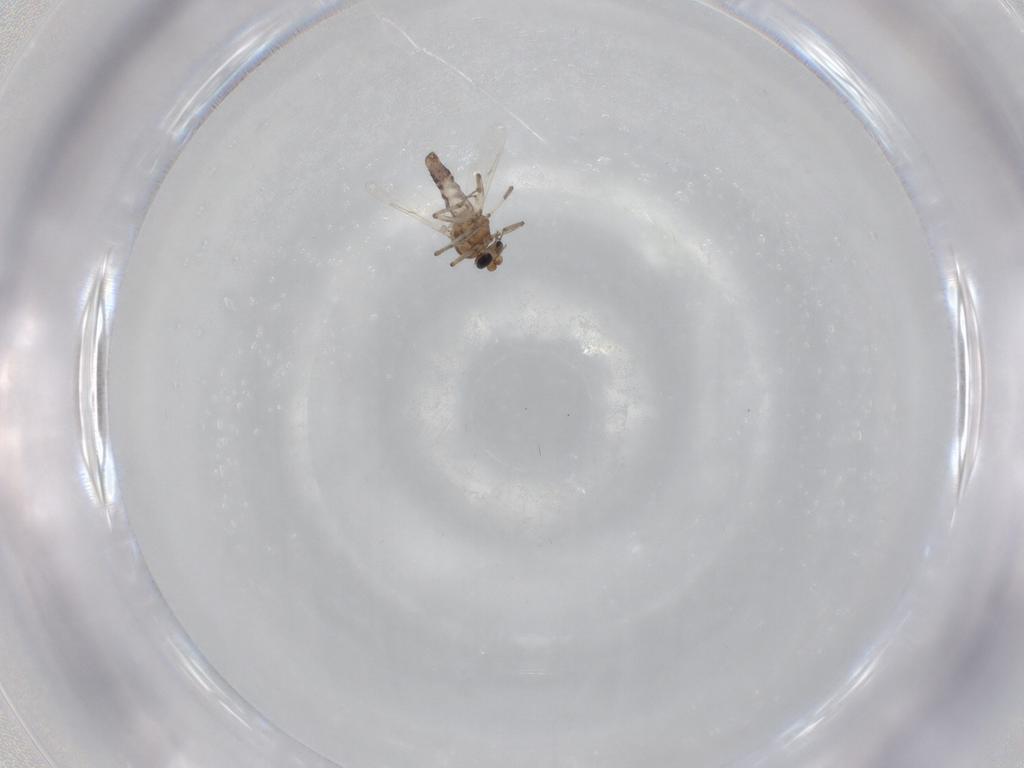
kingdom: Animalia
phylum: Arthropoda
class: Insecta
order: Diptera
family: Ceratopogonidae
